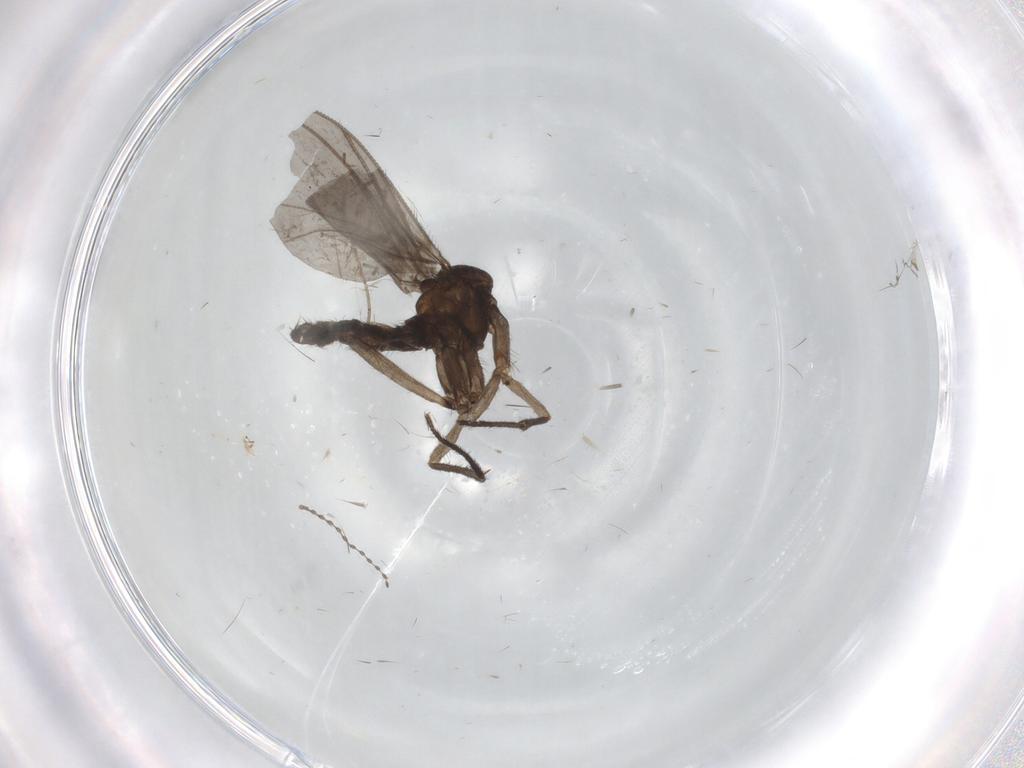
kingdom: Animalia
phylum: Arthropoda
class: Insecta
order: Diptera
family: Sciaridae
